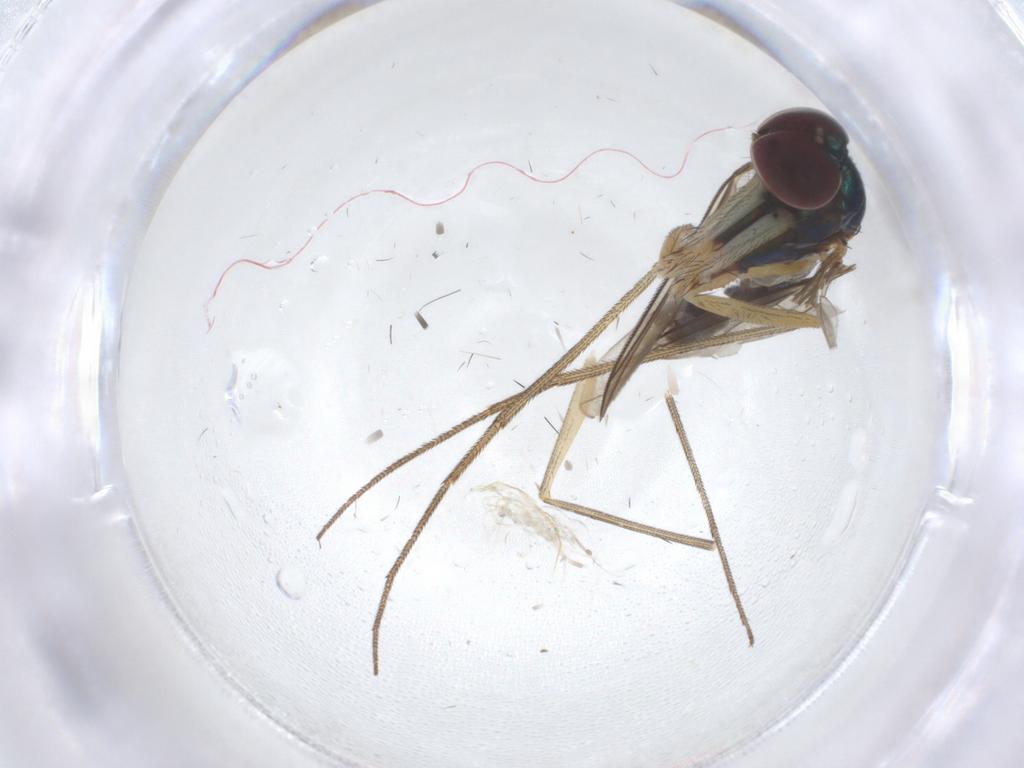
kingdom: Animalia
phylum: Arthropoda
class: Insecta
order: Diptera
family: Dolichopodidae
